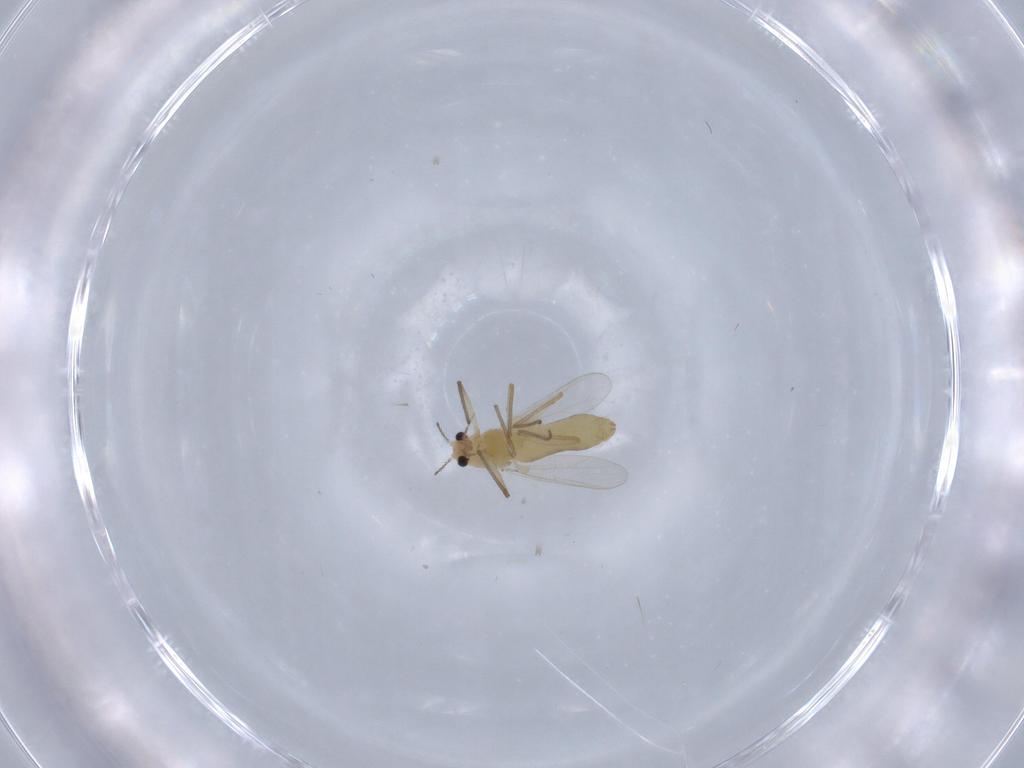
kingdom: Animalia
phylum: Arthropoda
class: Insecta
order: Diptera
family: Chironomidae
